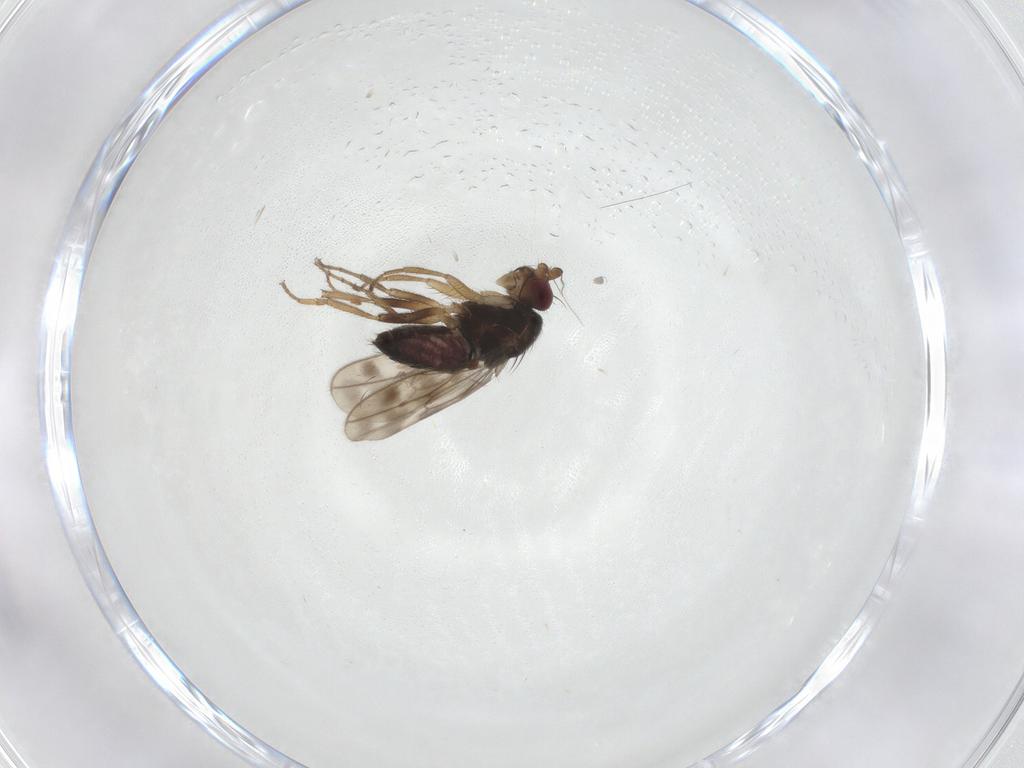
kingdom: Animalia
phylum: Arthropoda
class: Insecta
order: Diptera
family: Sphaeroceridae
